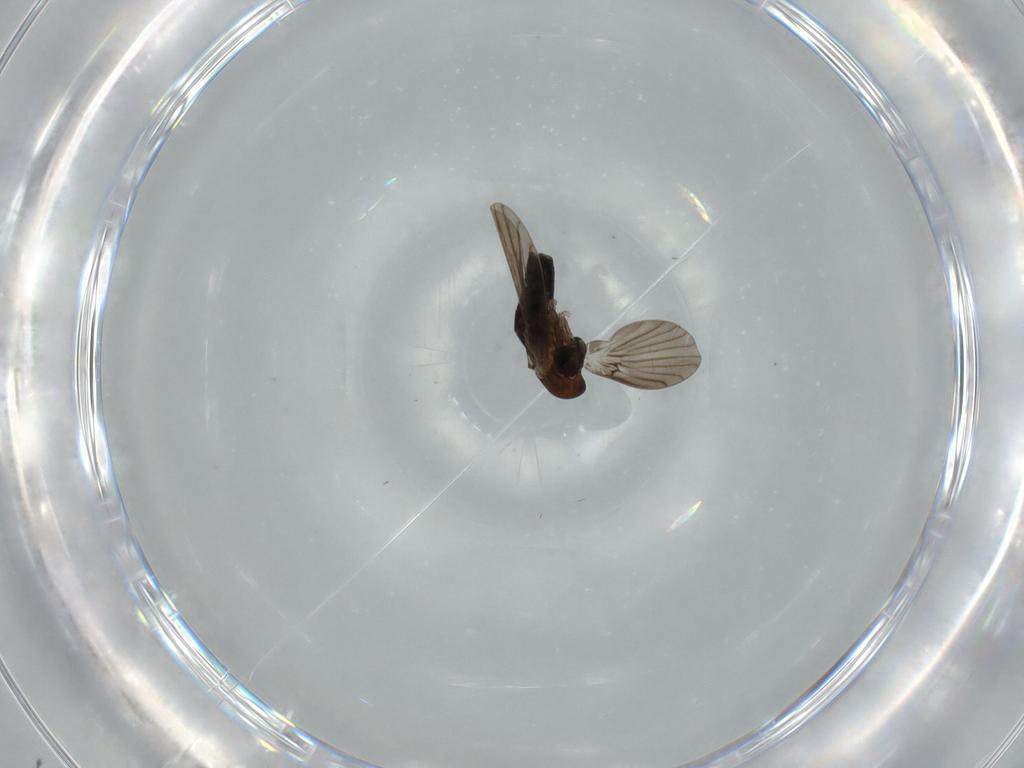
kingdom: Animalia
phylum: Arthropoda
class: Insecta
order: Diptera
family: Psychodidae
